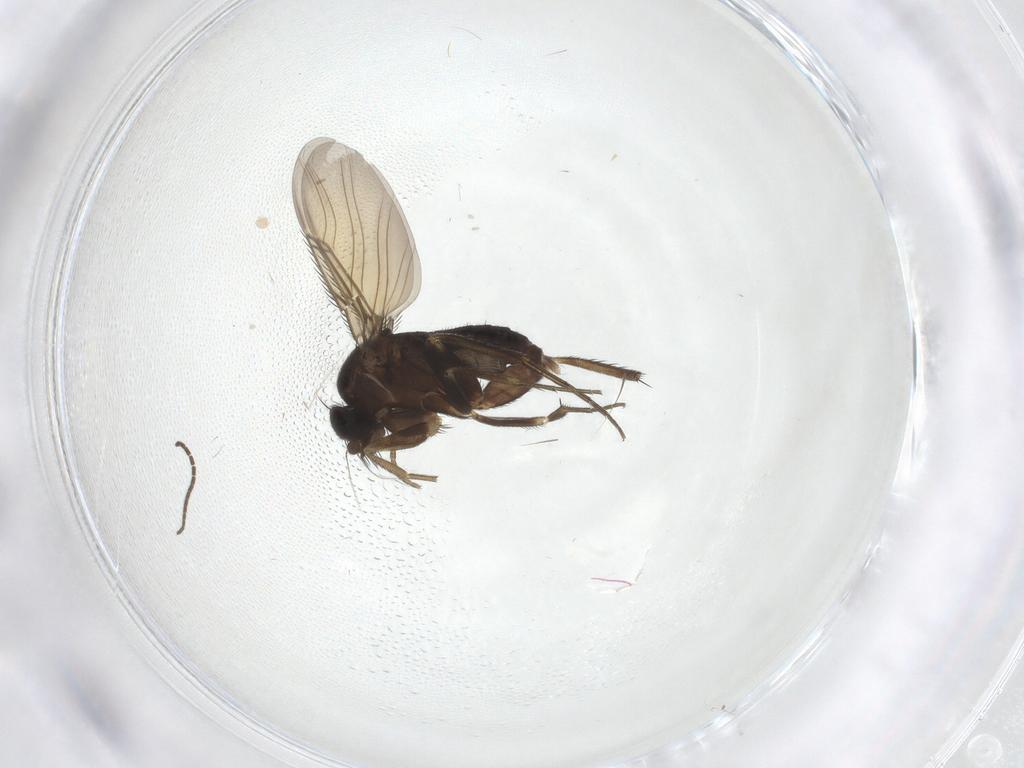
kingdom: Animalia
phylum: Arthropoda
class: Insecta
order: Diptera
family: Phoridae
